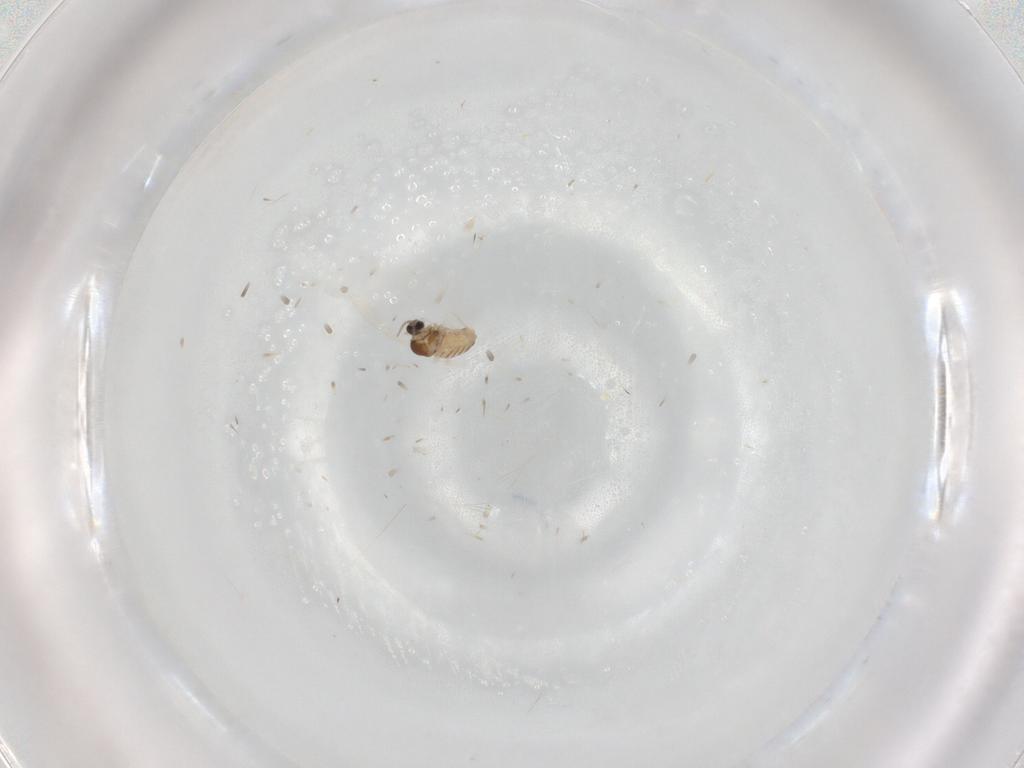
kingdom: Animalia
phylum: Arthropoda
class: Insecta
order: Diptera
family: Cecidomyiidae
